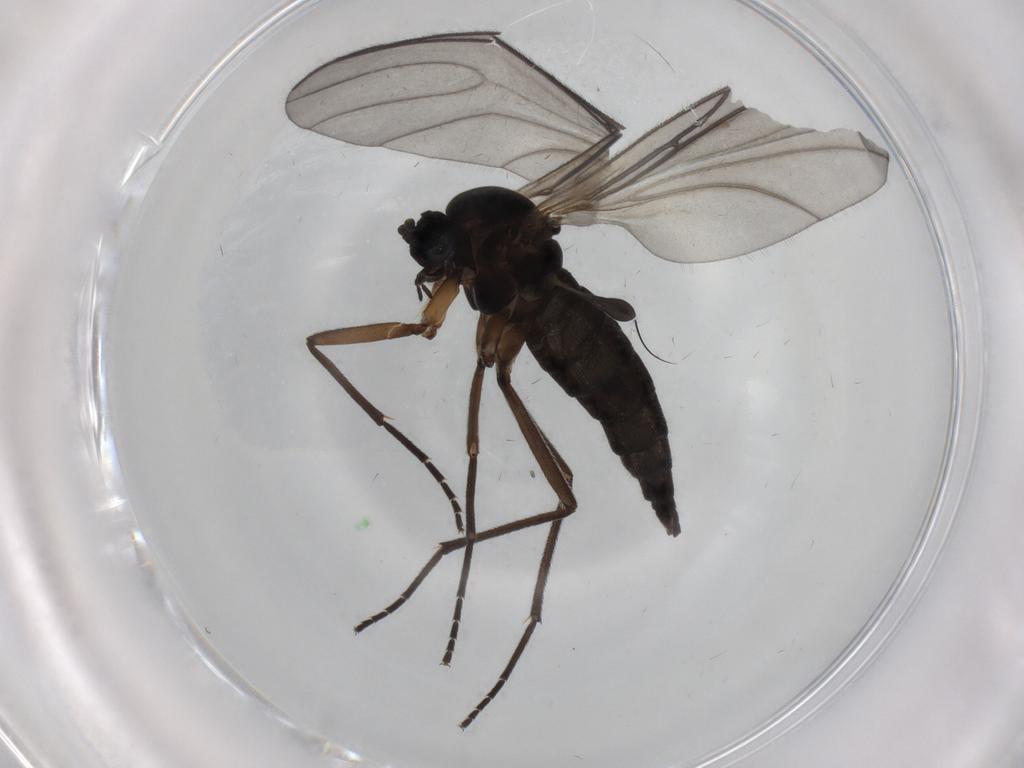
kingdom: Animalia
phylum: Arthropoda
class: Insecta
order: Diptera
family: Sciaridae
